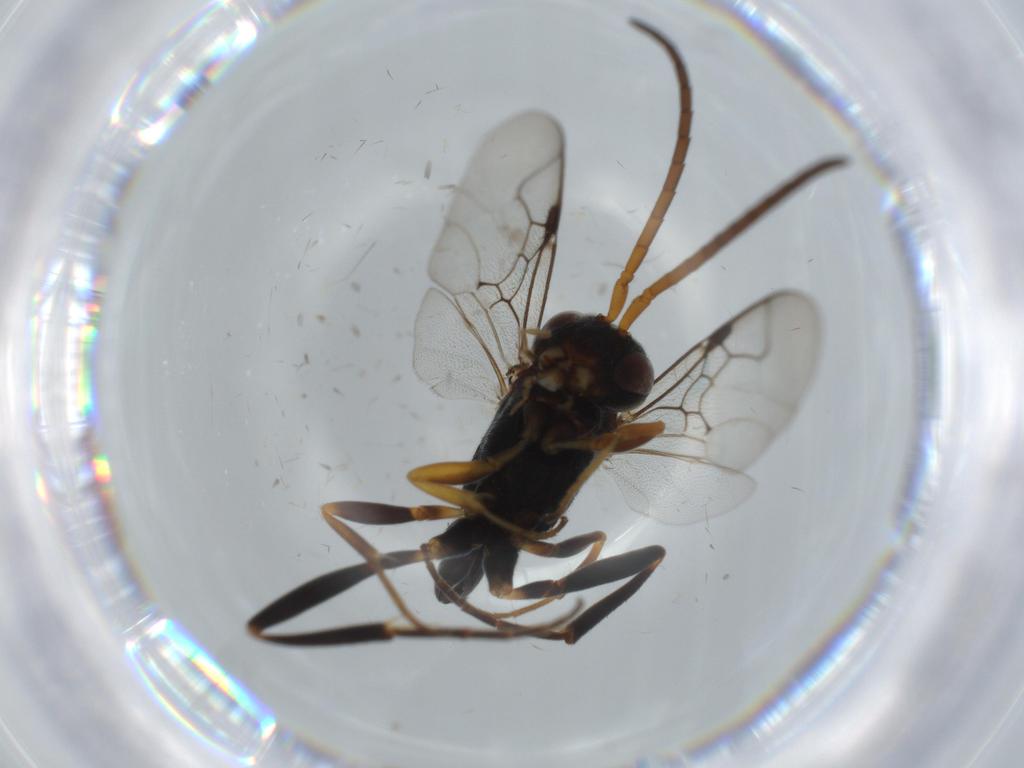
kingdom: Animalia
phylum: Arthropoda
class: Insecta
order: Hymenoptera
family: Evaniidae
